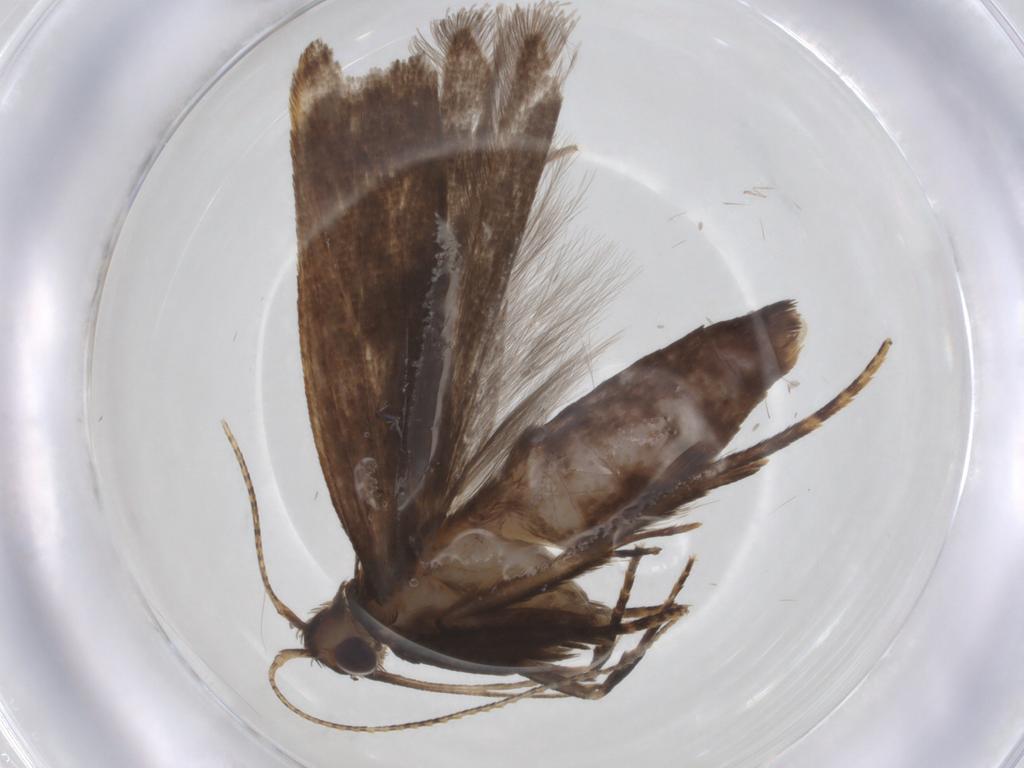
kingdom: Animalia
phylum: Arthropoda
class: Insecta
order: Lepidoptera
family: Gelechiidae
